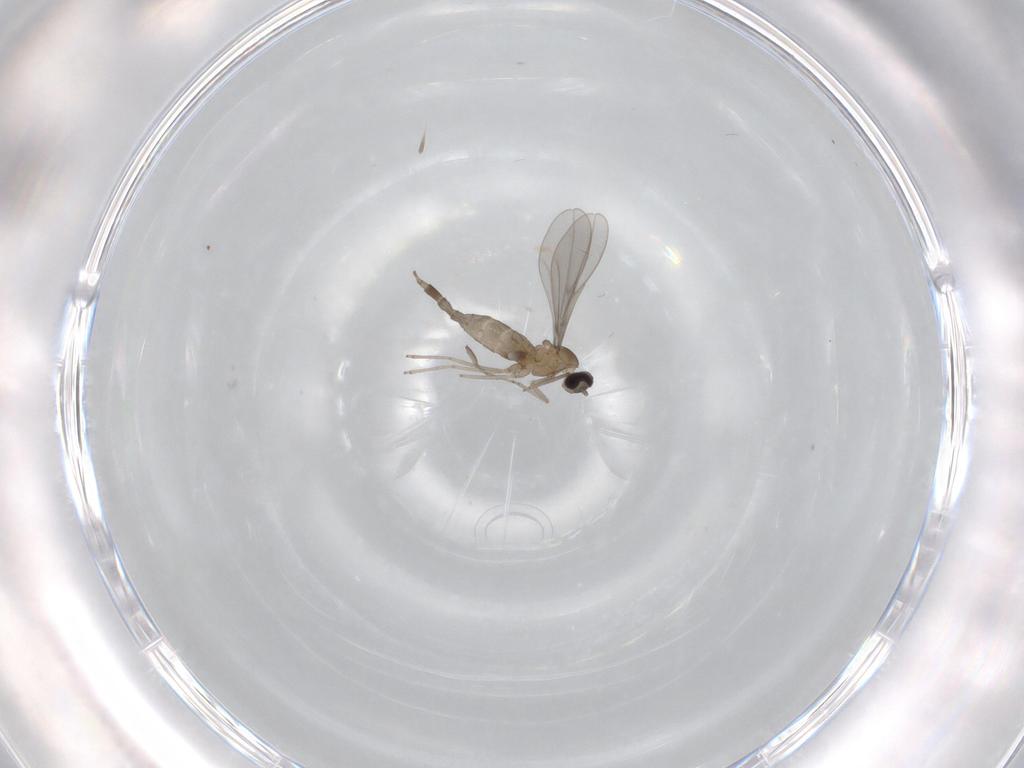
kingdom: Animalia
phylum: Arthropoda
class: Insecta
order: Diptera
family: Cecidomyiidae
